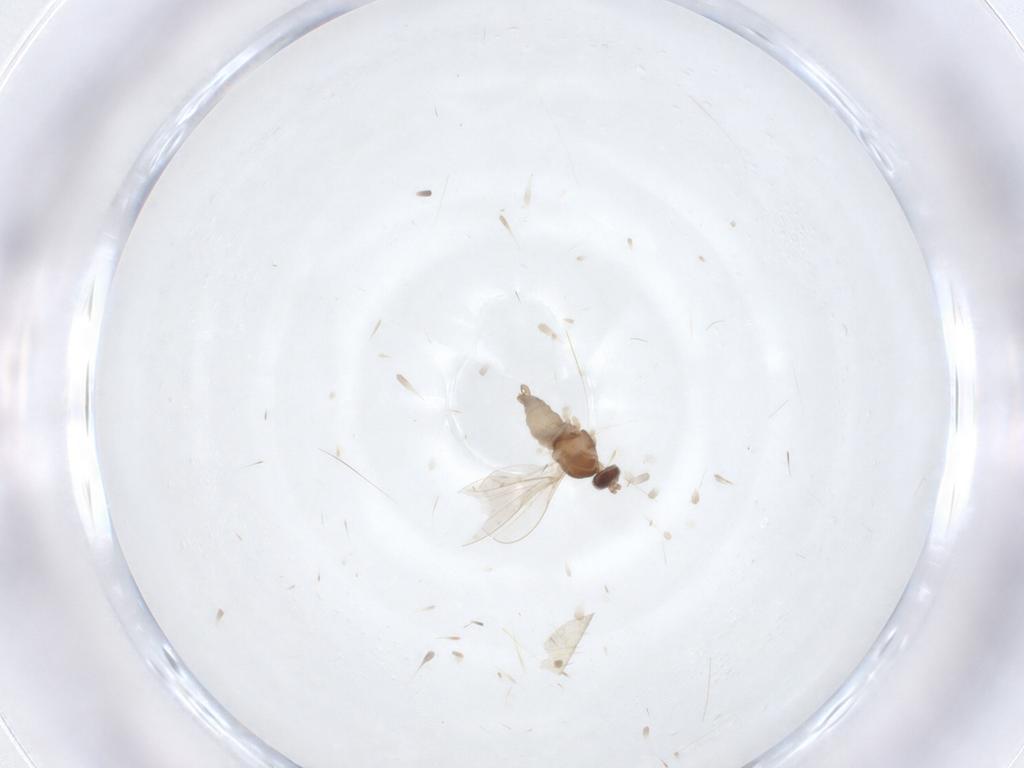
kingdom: Animalia
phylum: Arthropoda
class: Insecta
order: Diptera
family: Cecidomyiidae
